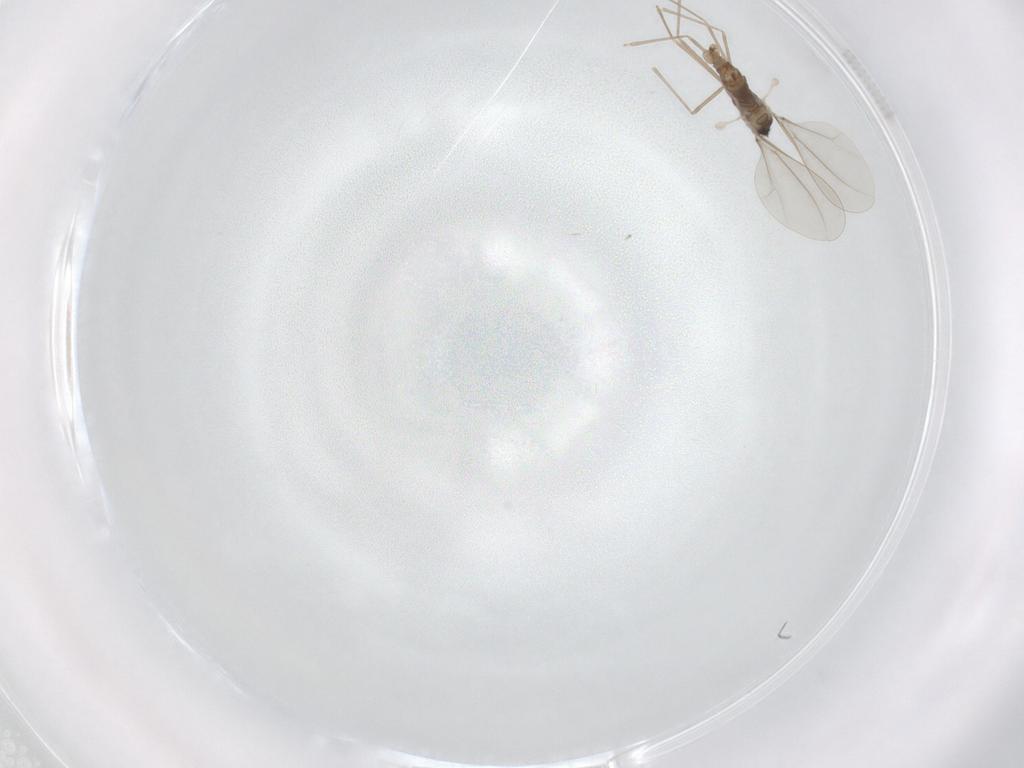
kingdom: Animalia
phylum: Arthropoda
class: Insecta
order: Diptera
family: Cecidomyiidae
